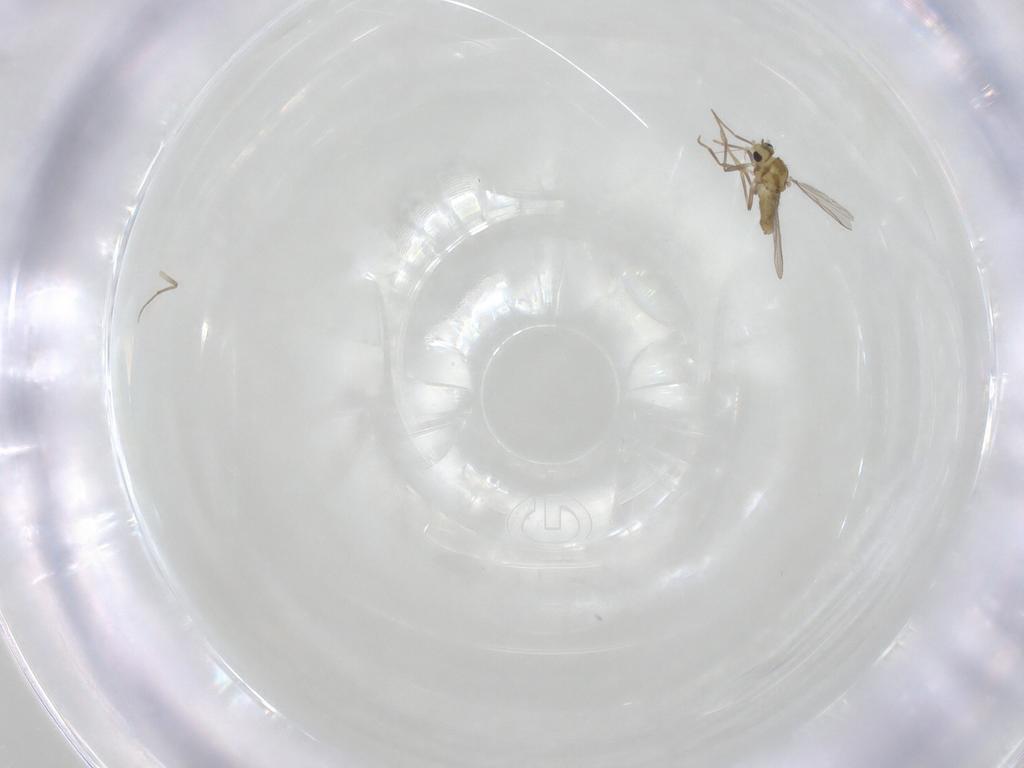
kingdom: Animalia
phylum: Arthropoda
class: Insecta
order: Diptera
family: Chironomidae
